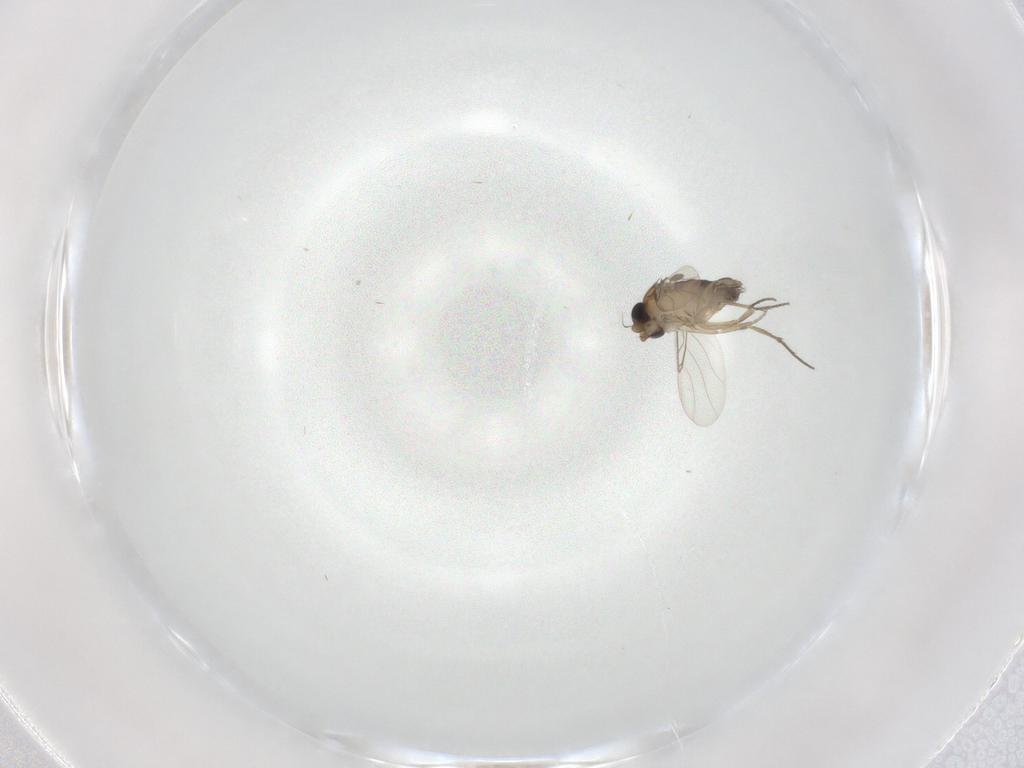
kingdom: Animalia
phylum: Arthropoda
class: Insecta
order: Diptera
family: Phoridae
